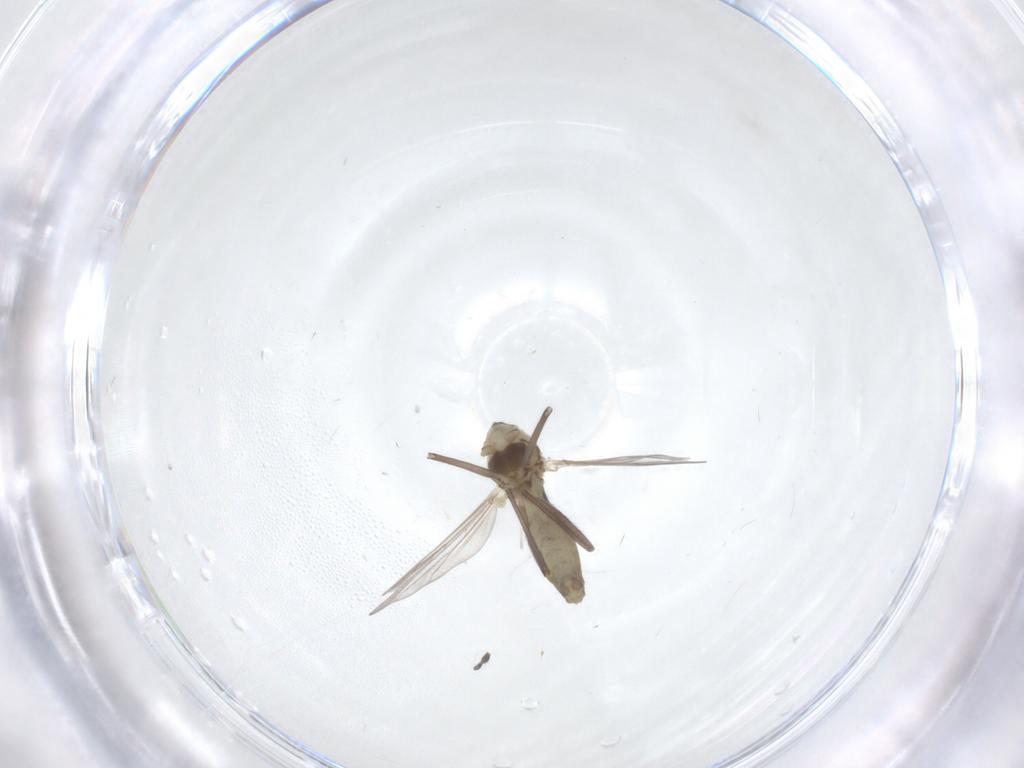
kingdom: Animalia
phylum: Arthropoda
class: Insecta
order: Diptera
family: Chironomidae
